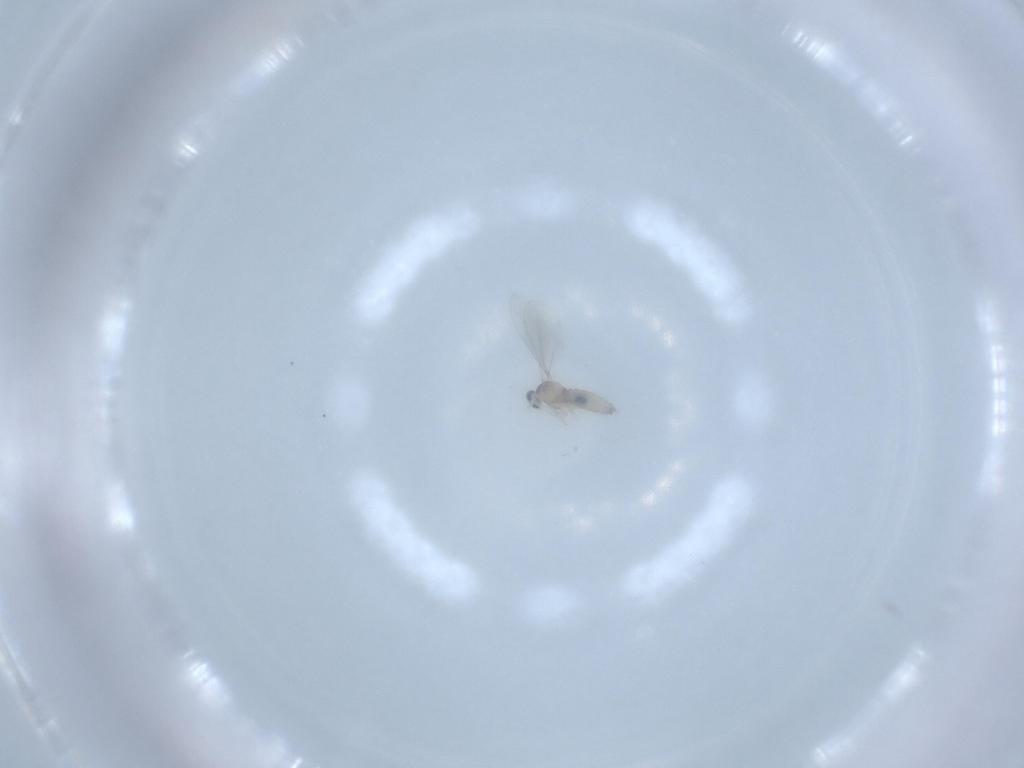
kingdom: Animalia
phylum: Arthropoda
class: Insecta
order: Diptera
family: Cecidomyiidae
